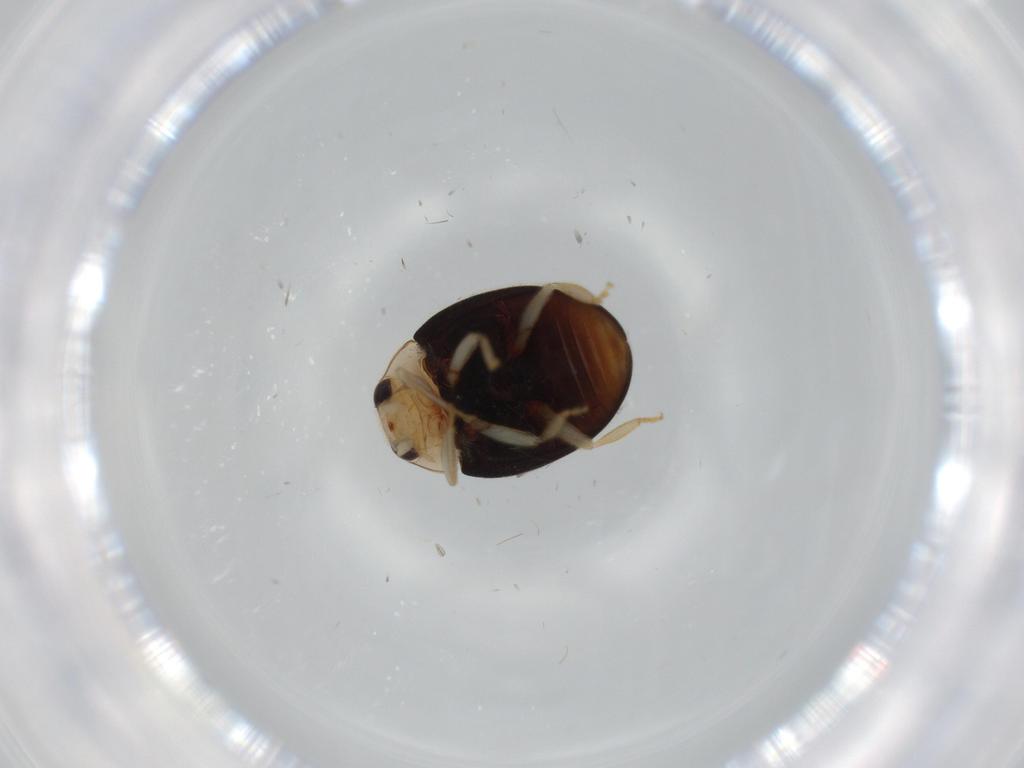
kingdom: Animalia
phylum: Arthropoda
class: Insecta
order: Coleoptera
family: Coccinellidae
